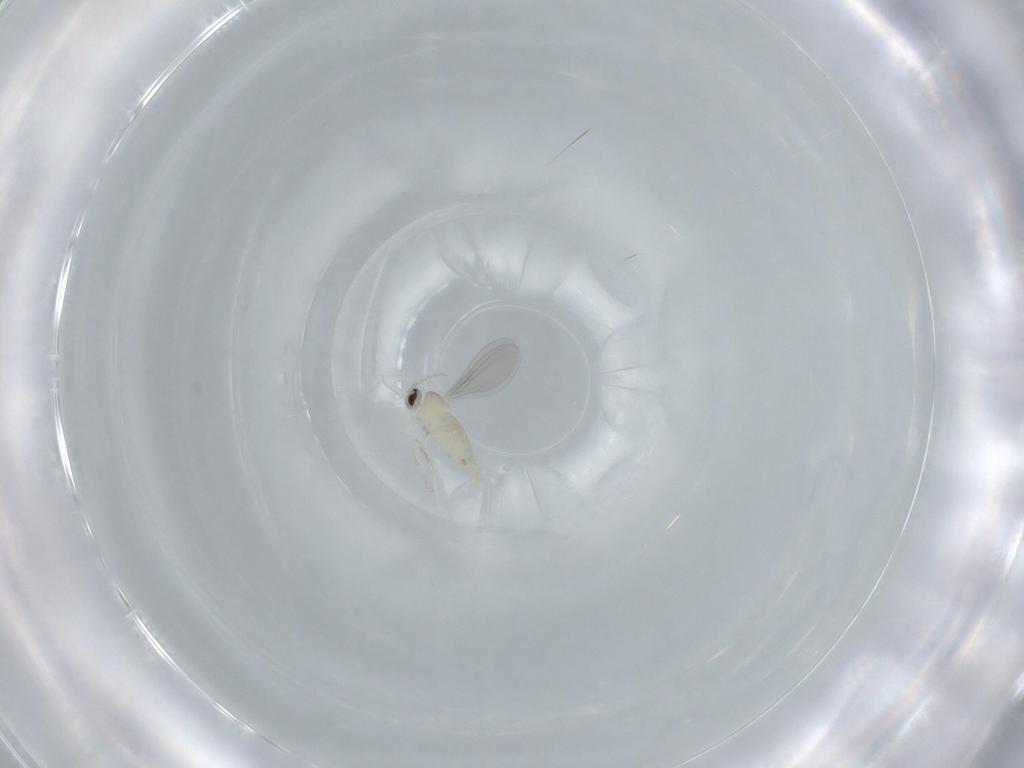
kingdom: Animalia
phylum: Arthropoda
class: Insecta
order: Diptera
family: Cecidomyiidae
